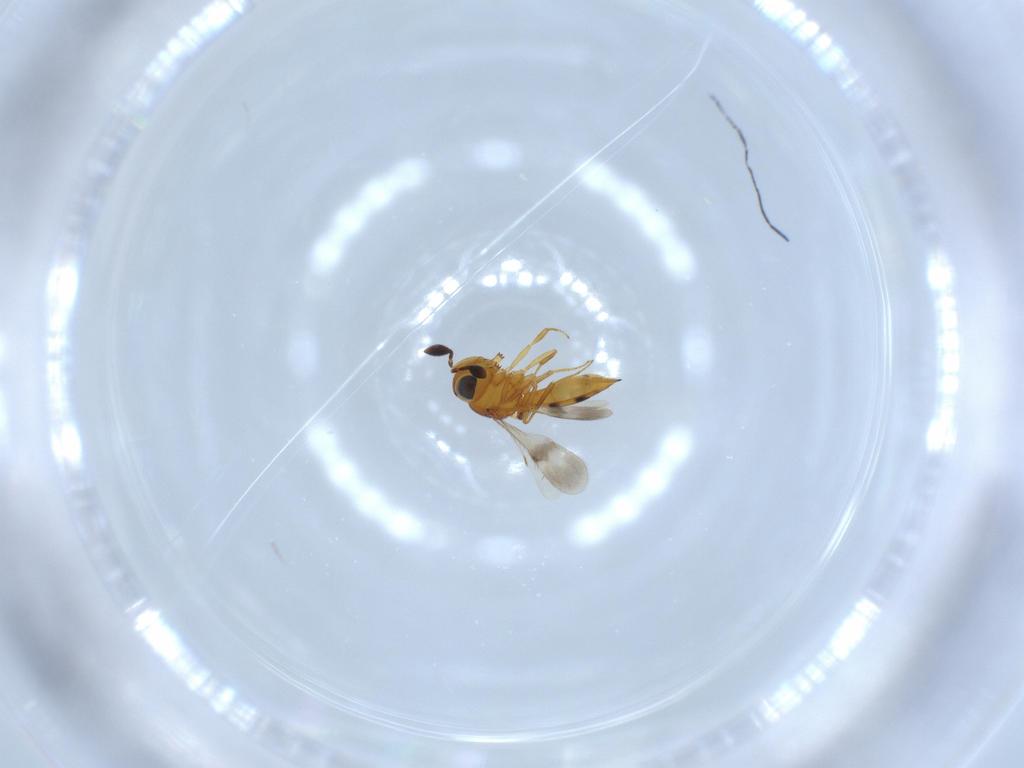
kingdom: Animalia
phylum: Arthropoda
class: Insecta
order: Hymenoptera
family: Scelionidae
